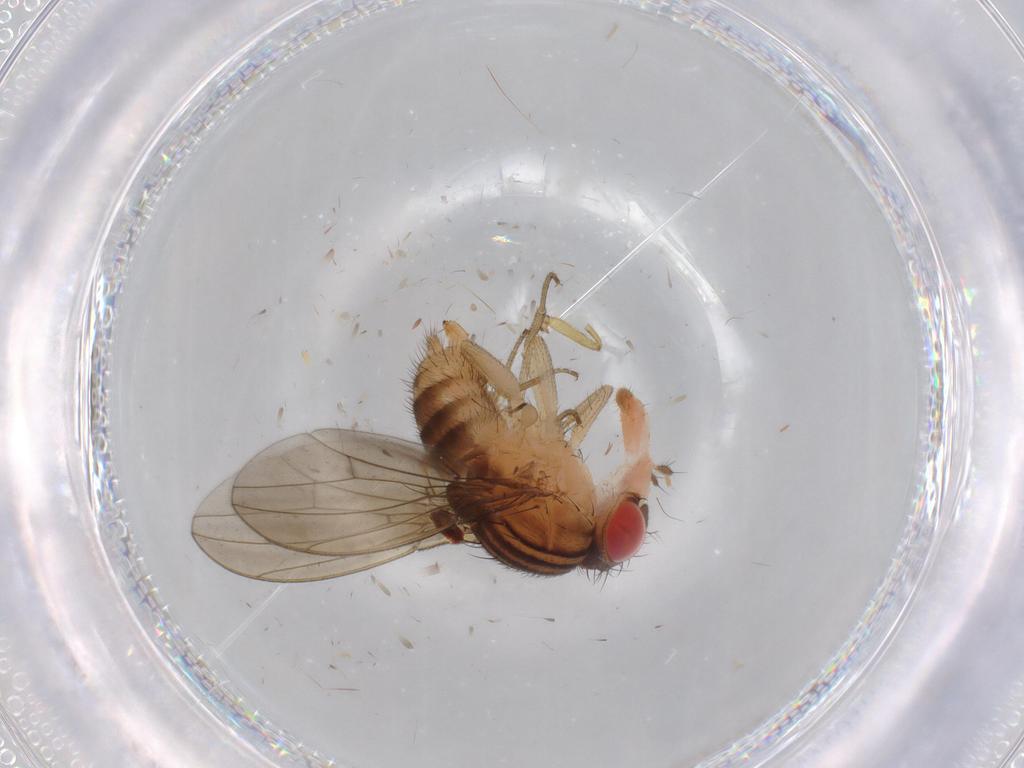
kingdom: Animalia
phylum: Arthropoda
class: Insecta
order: Diptera
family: Drosophilidae
